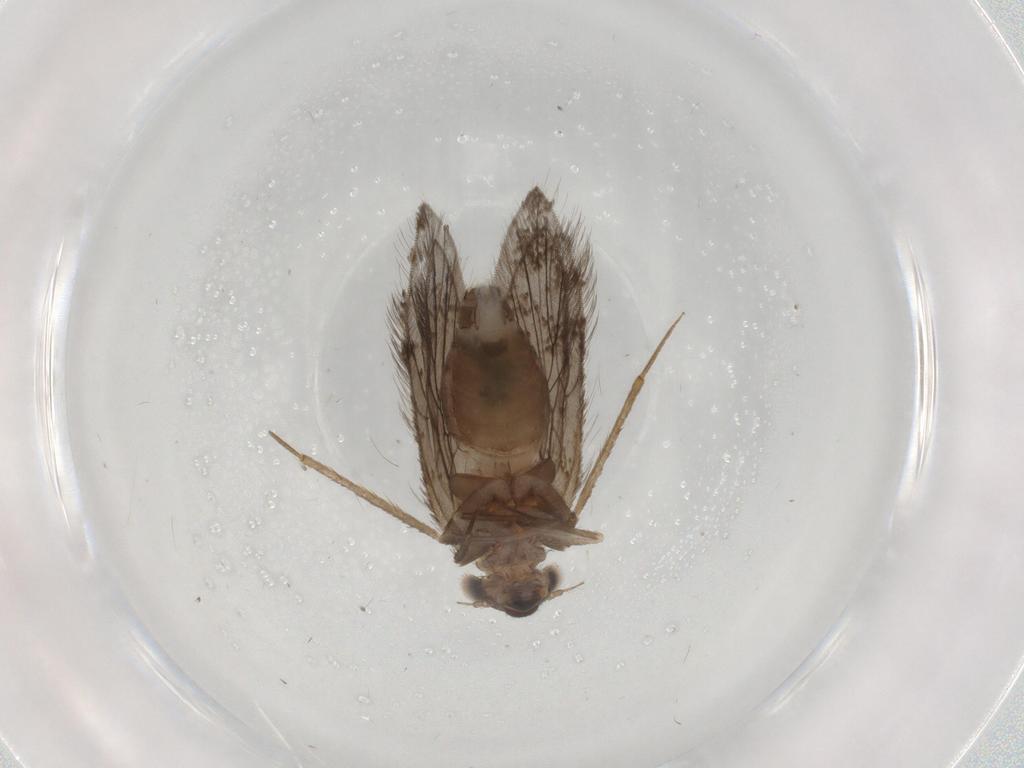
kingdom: Animalia
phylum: Arthropoda
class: Insecta
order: Psocodea
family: Lepidopsocidae
